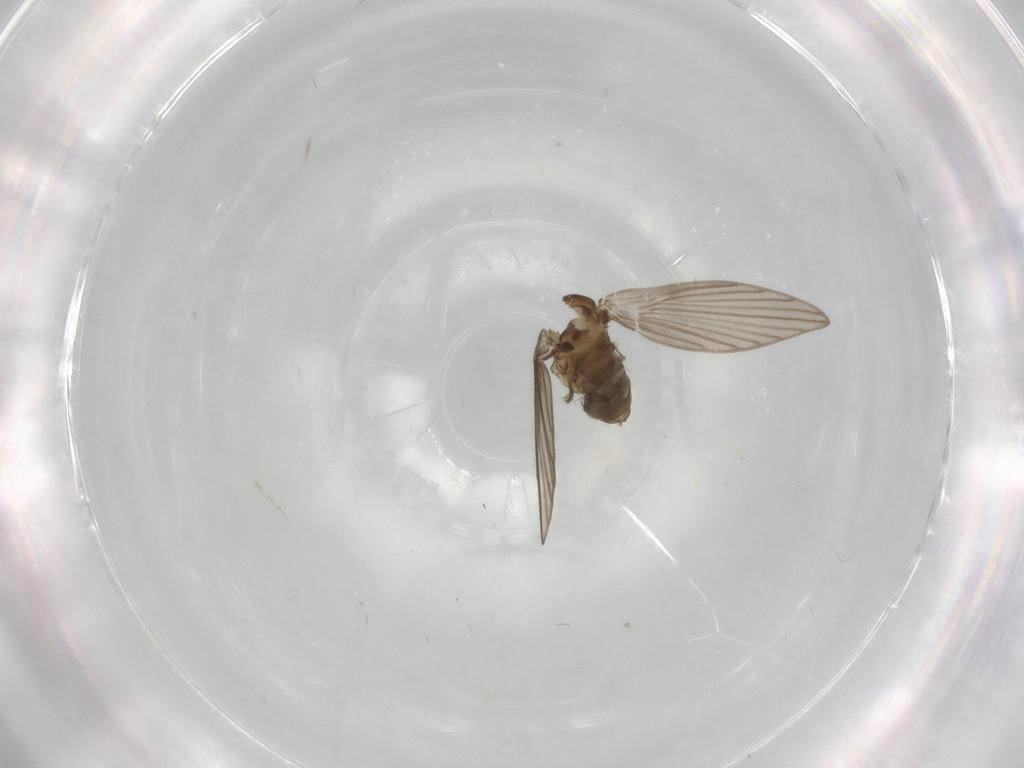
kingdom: Animalia
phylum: Arthropoda
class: Insecta
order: Diptera
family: Psychodidae
